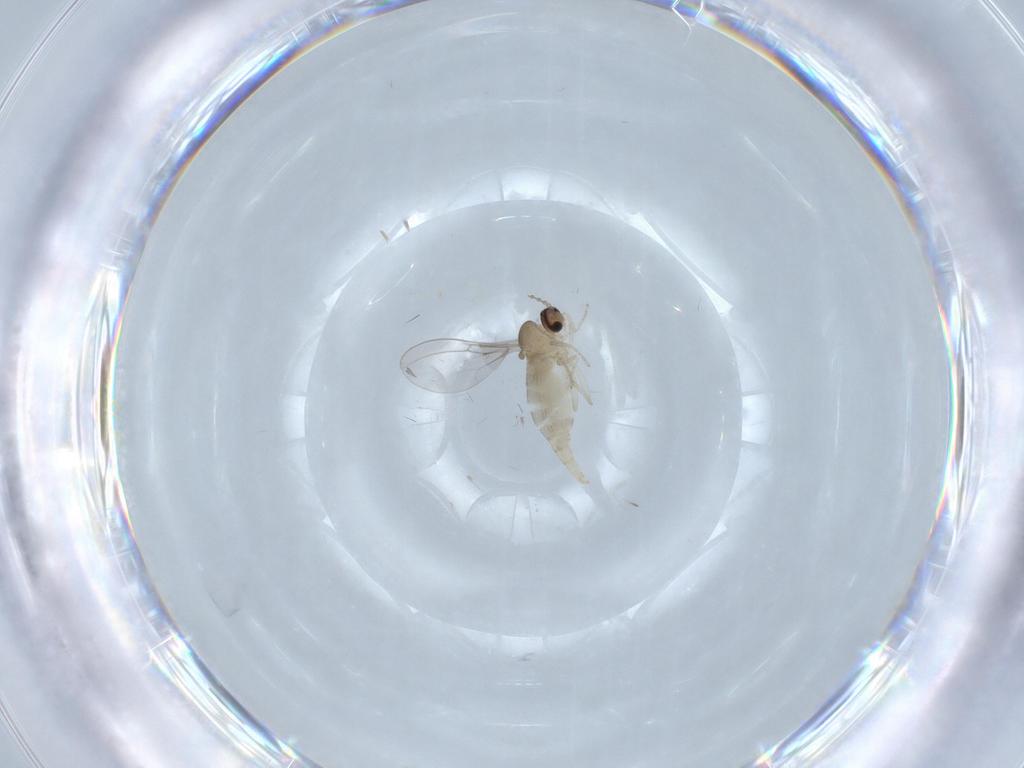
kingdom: Animalia
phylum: Arthropoda
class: Insecta
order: Diptera
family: Cecidomyiidae
